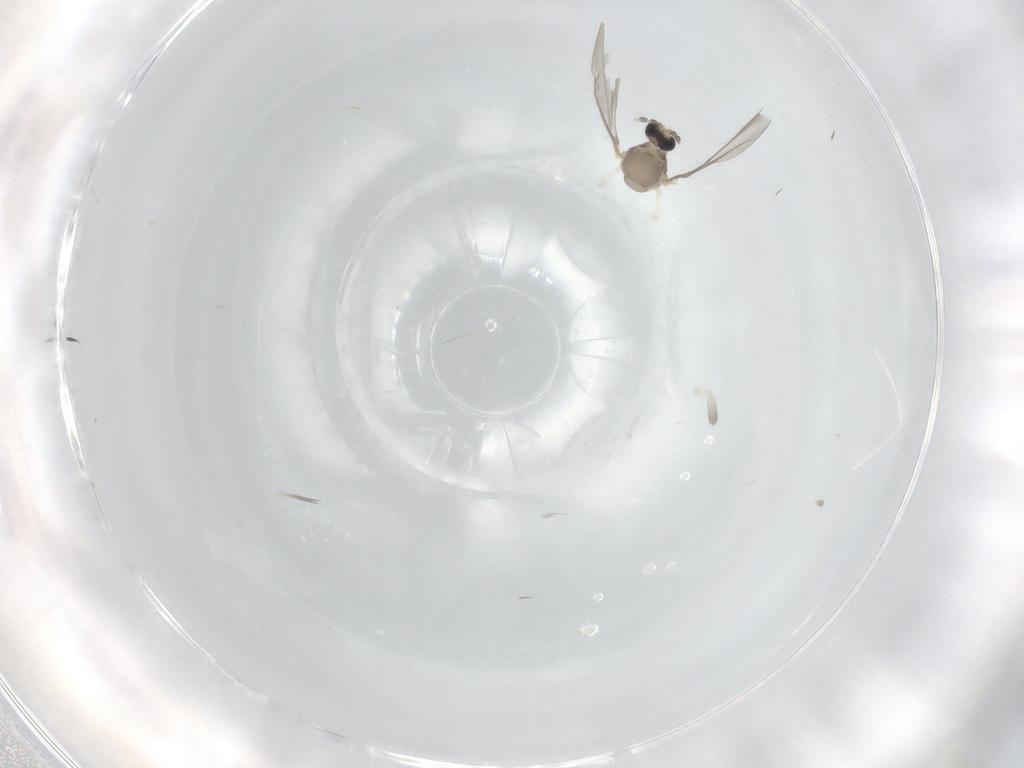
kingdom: Animalia
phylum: Arthropoda
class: Insecta
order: Diptera
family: Cecidomyiidae
